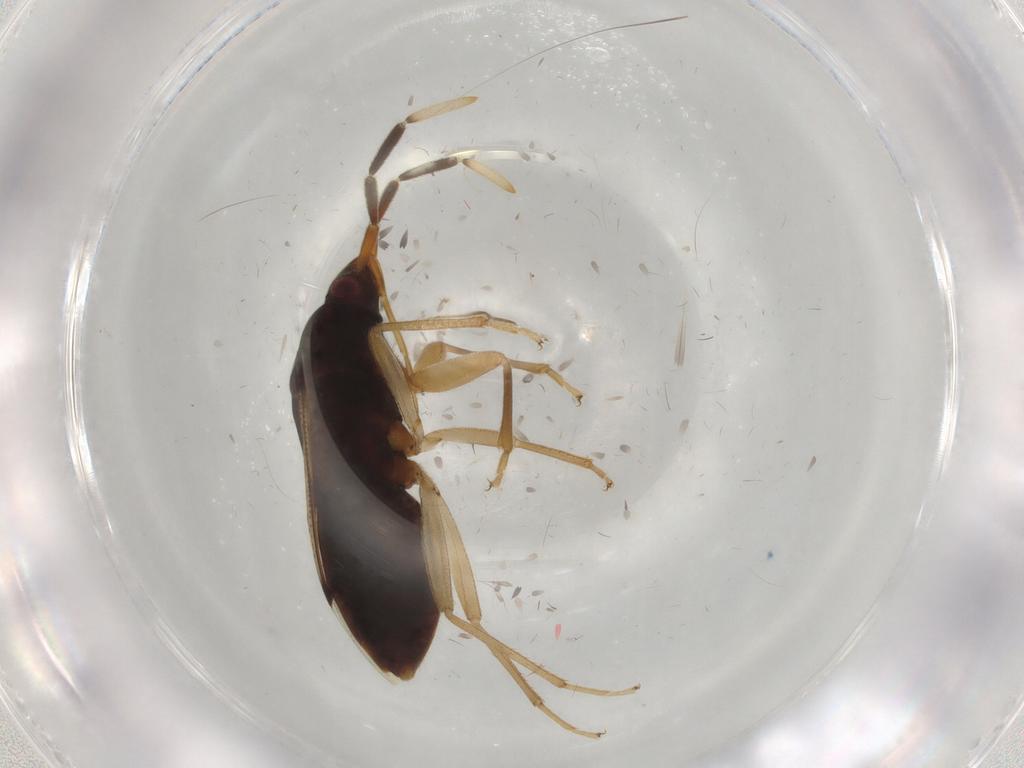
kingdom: Animalia
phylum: Arthropoda
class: Insecta
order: Hemiptera
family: Rhyparochromidae
